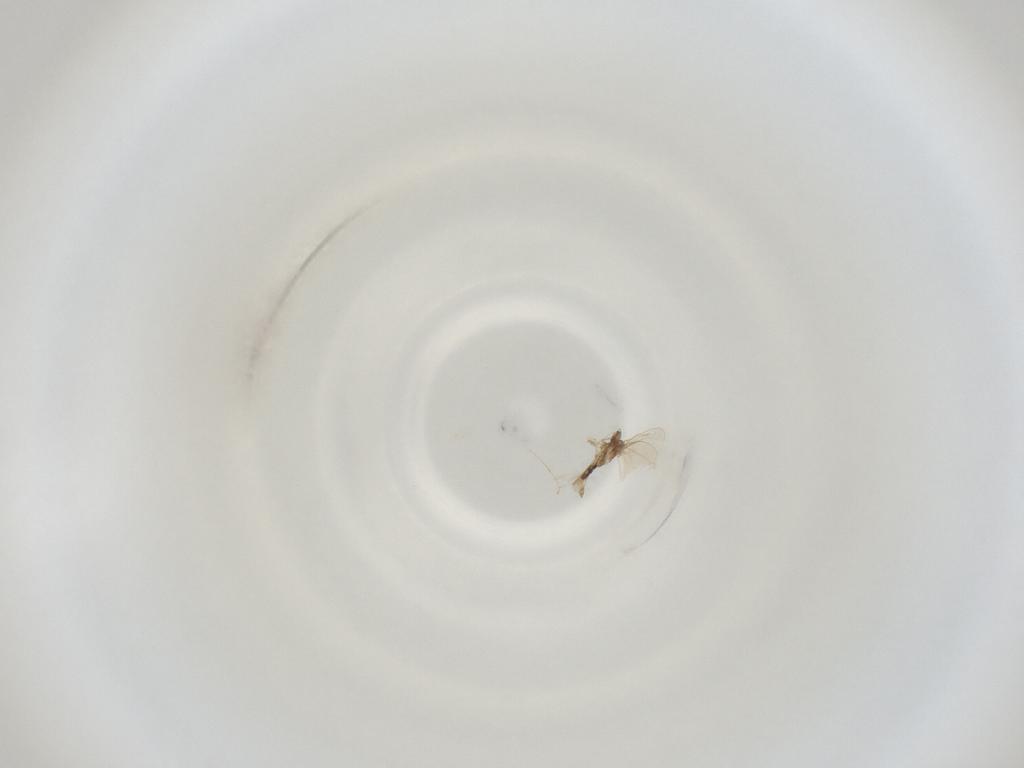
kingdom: Animalia
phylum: Arthropoda
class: Insecta
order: Diptera
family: Cecidomyiidae
